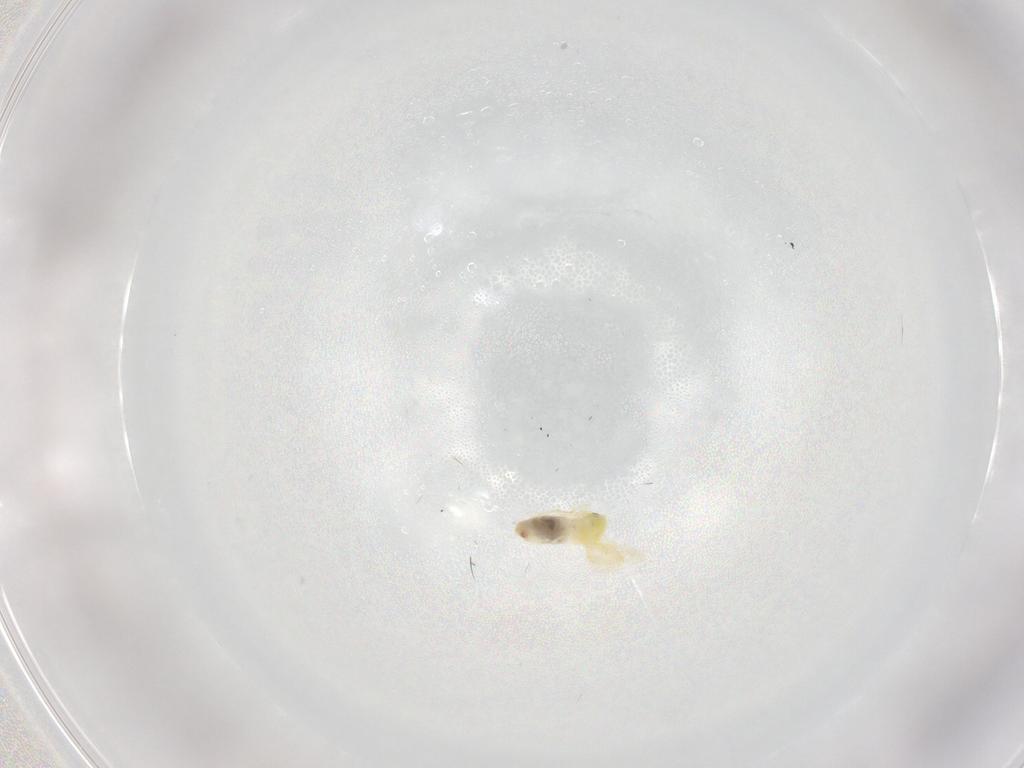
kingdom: Animalia
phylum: Arthropoda
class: Insecta
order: Hemiptera
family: Aleyrodidae
